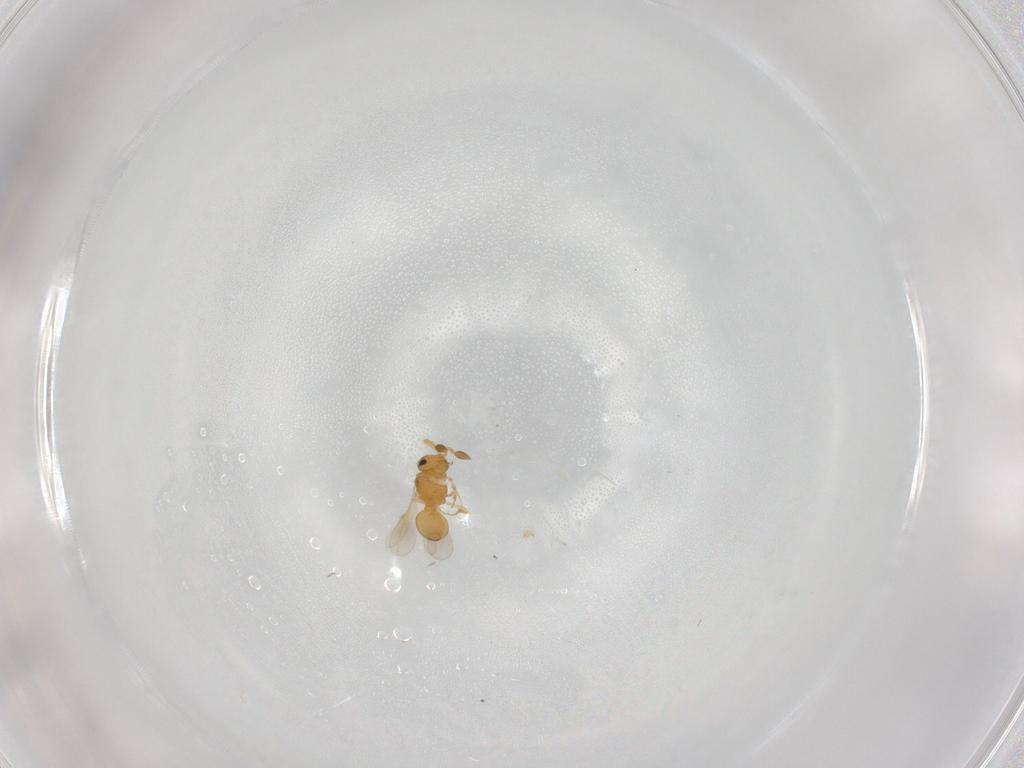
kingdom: Animalia
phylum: Arthropoda
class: Insecta
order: Hymenoptera
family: Scelionidae
